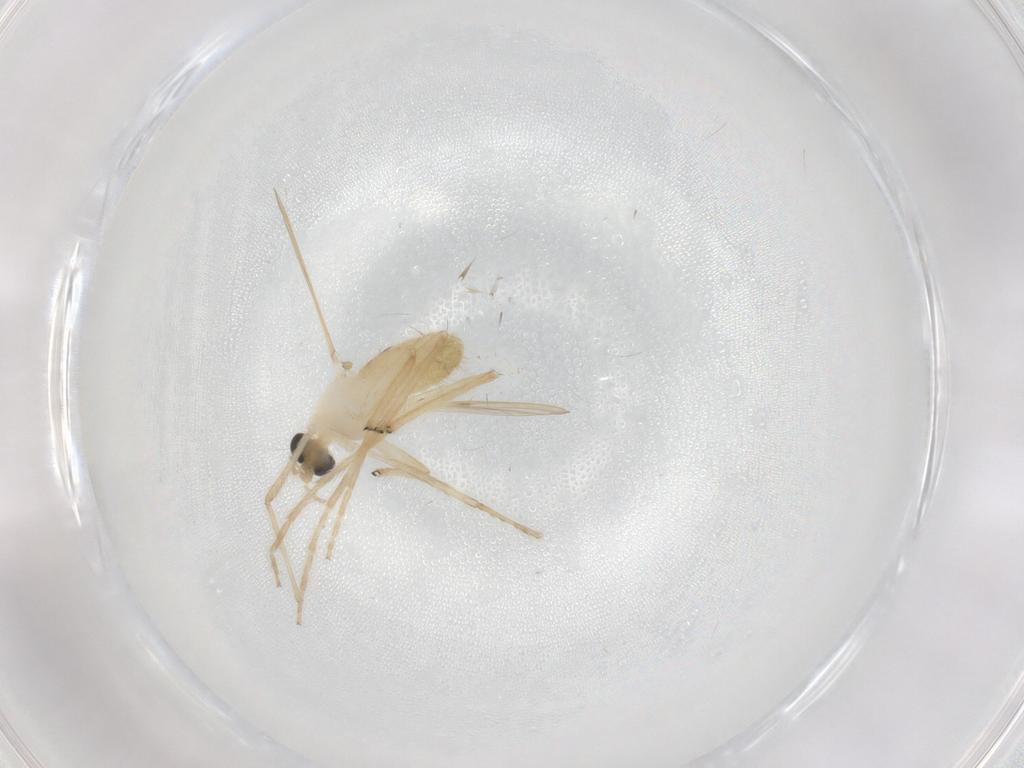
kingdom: Animalia
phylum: Arthropoda
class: Insecta
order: Diptera
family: Chironomidae
